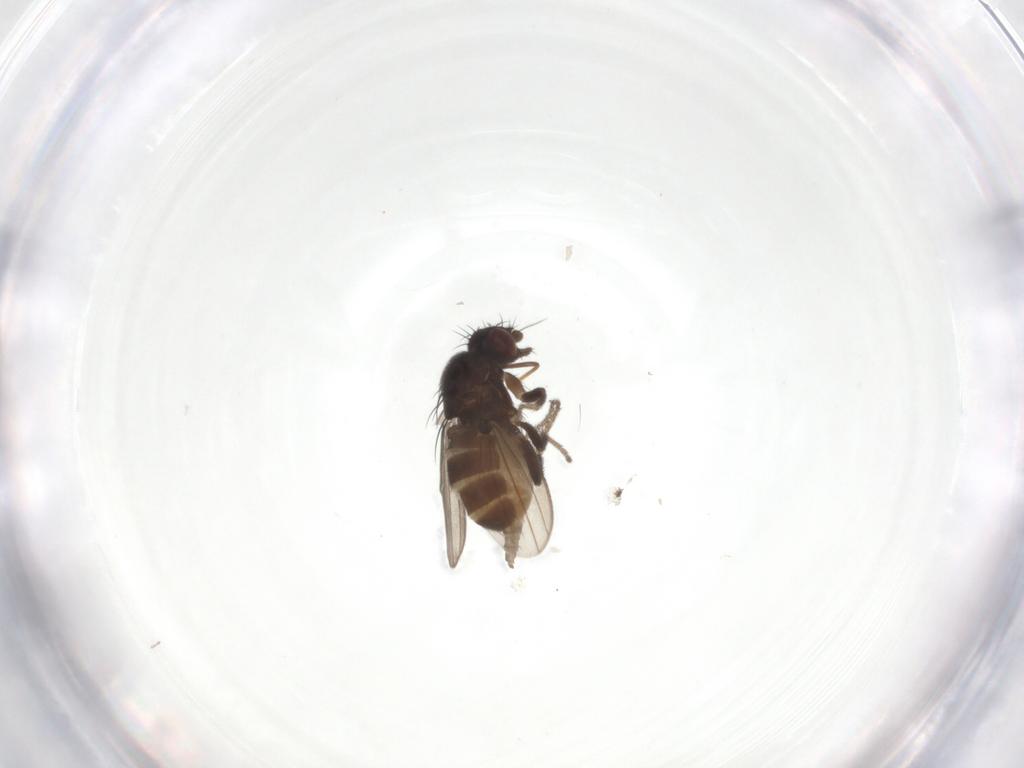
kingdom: Animalia
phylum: Arthropoda
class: Insecta
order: Diptera
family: Milichiidae
